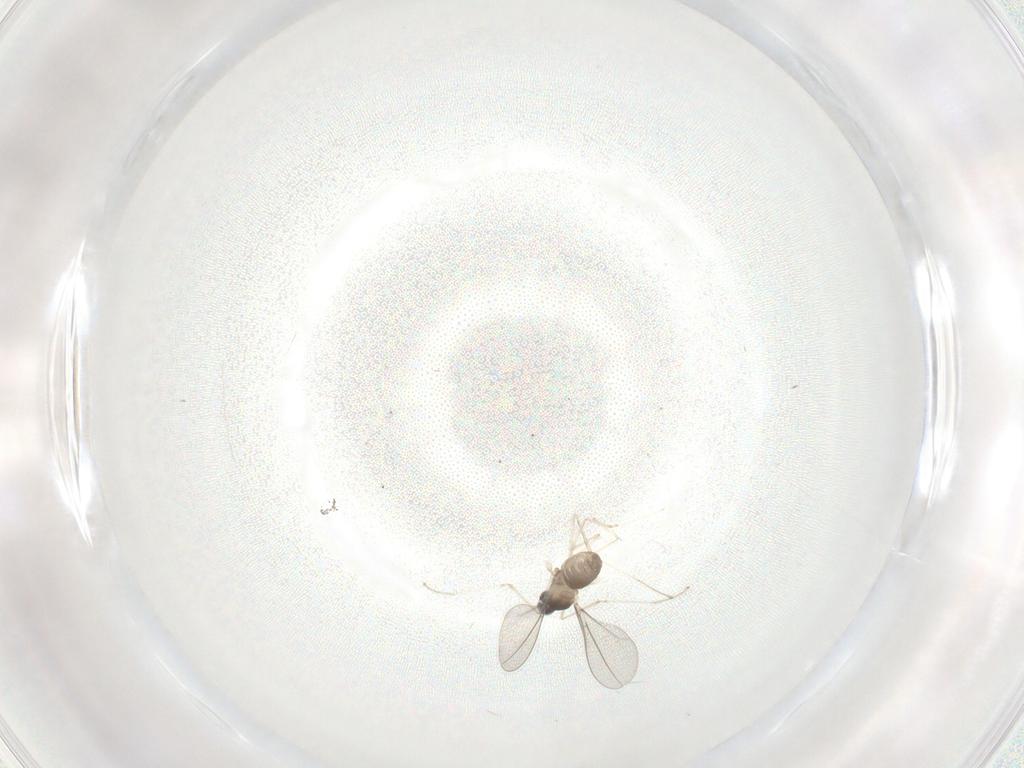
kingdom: Animalia
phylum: Arthropoda
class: Insecta
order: Diptera
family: Cecidomyiidae
